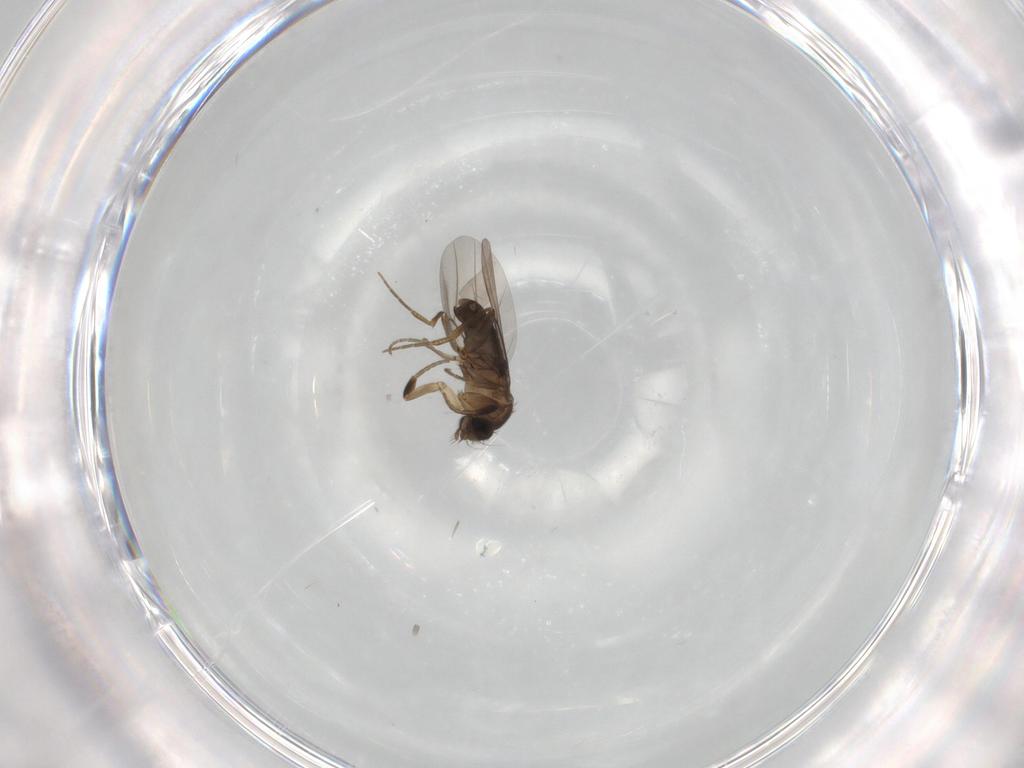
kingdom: Animalia
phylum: Arthropoda
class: Insecta
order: Diptera
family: Phoridae
